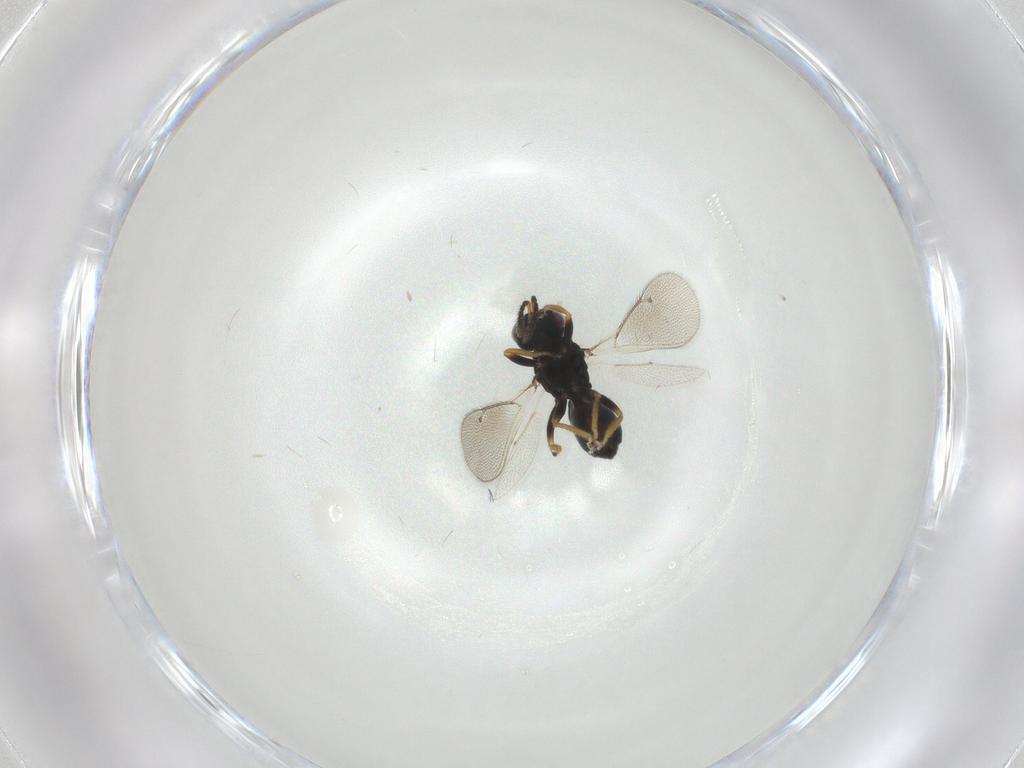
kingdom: Animalia
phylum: Arthropoda
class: Insecta
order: Hymenoptera
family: Eulophidae
